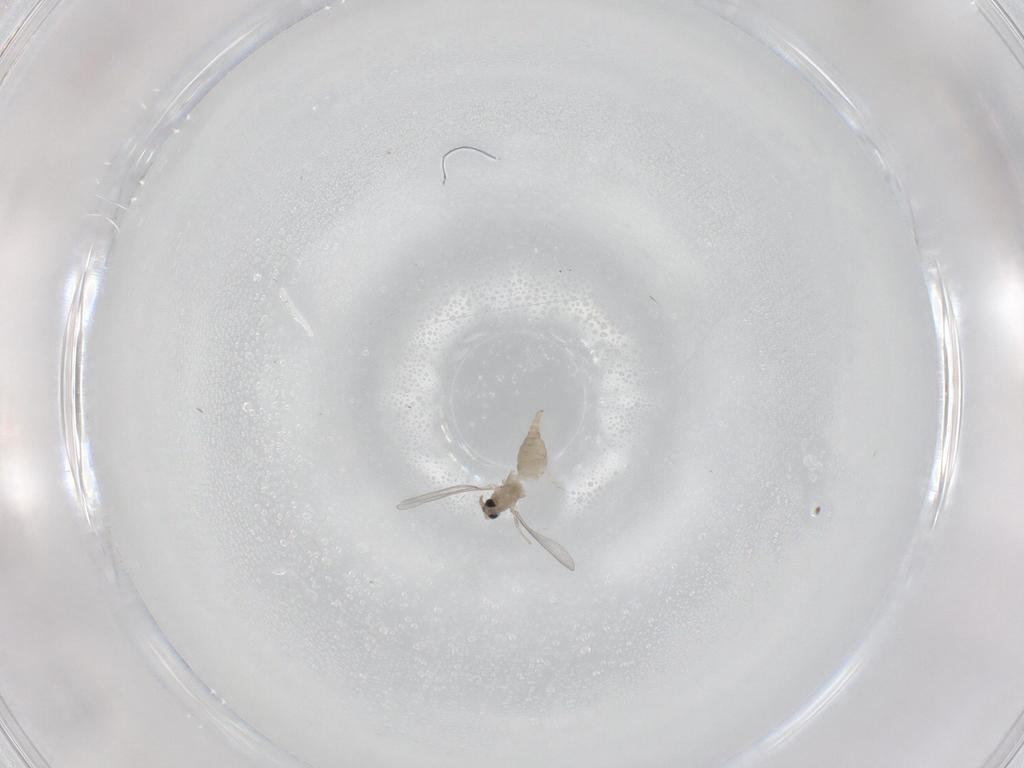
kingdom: Animalia
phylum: Arthropoda
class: Insecta
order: Diptera
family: Cecidomyiidae
